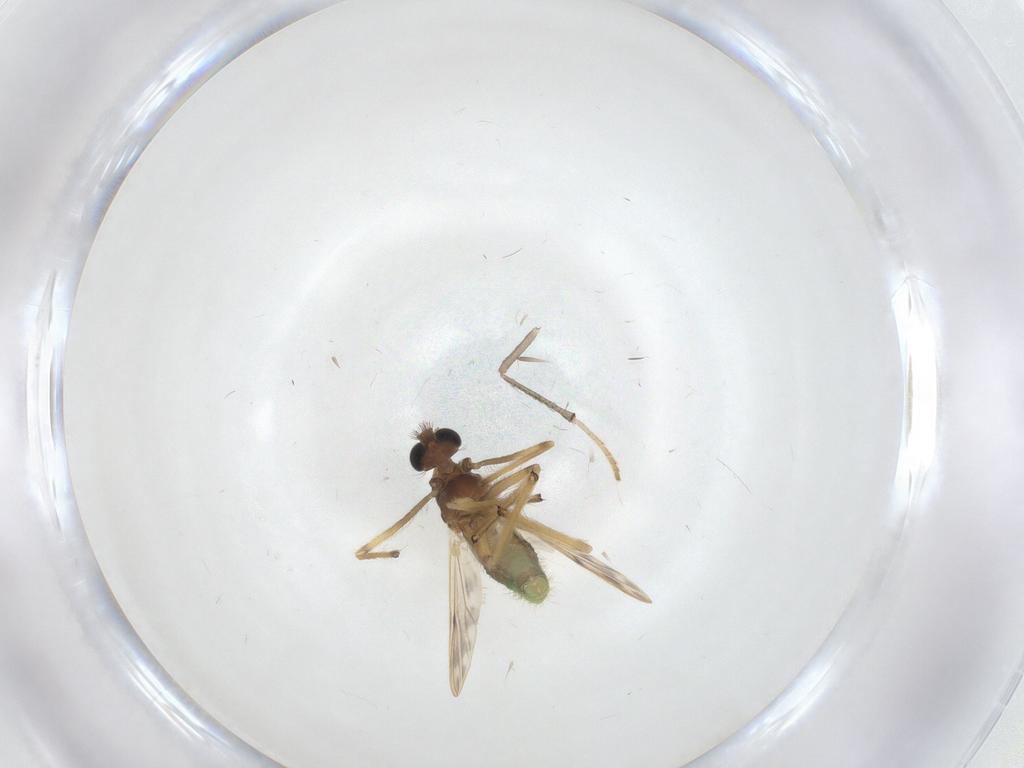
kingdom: Animalia
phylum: Arthropoda
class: Insecta
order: Diptera
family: Chironomidae
